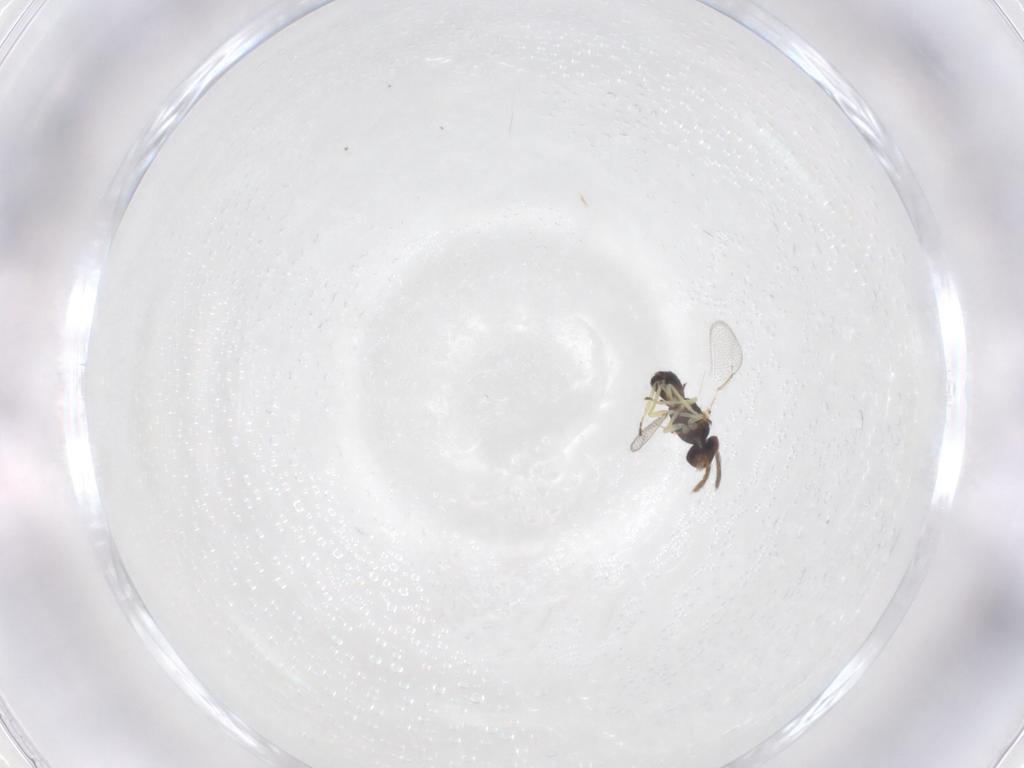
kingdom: Animalia
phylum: Arthropoda
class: Insecta
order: Hymenoptera
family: Eulophidae
